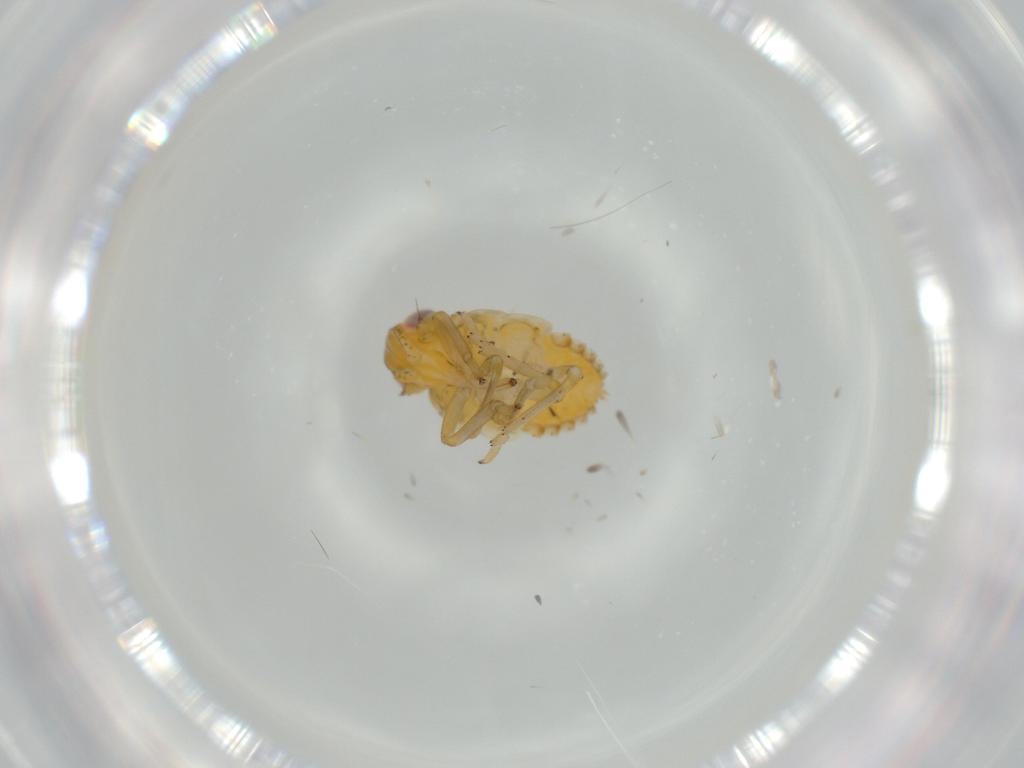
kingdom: Animalia
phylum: Arthropoda
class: Insecta
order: Hemiptera
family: Issidae
